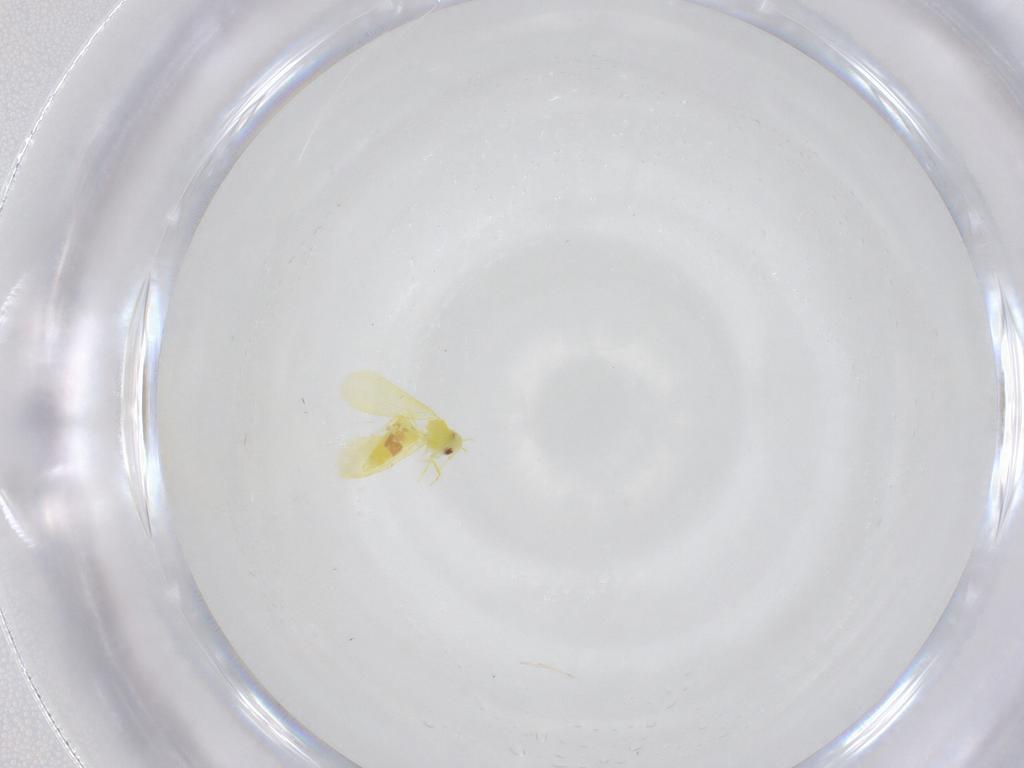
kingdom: Animalia
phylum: Arthropoda
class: Insecta
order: Hemiptera
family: Aleyrodidae
